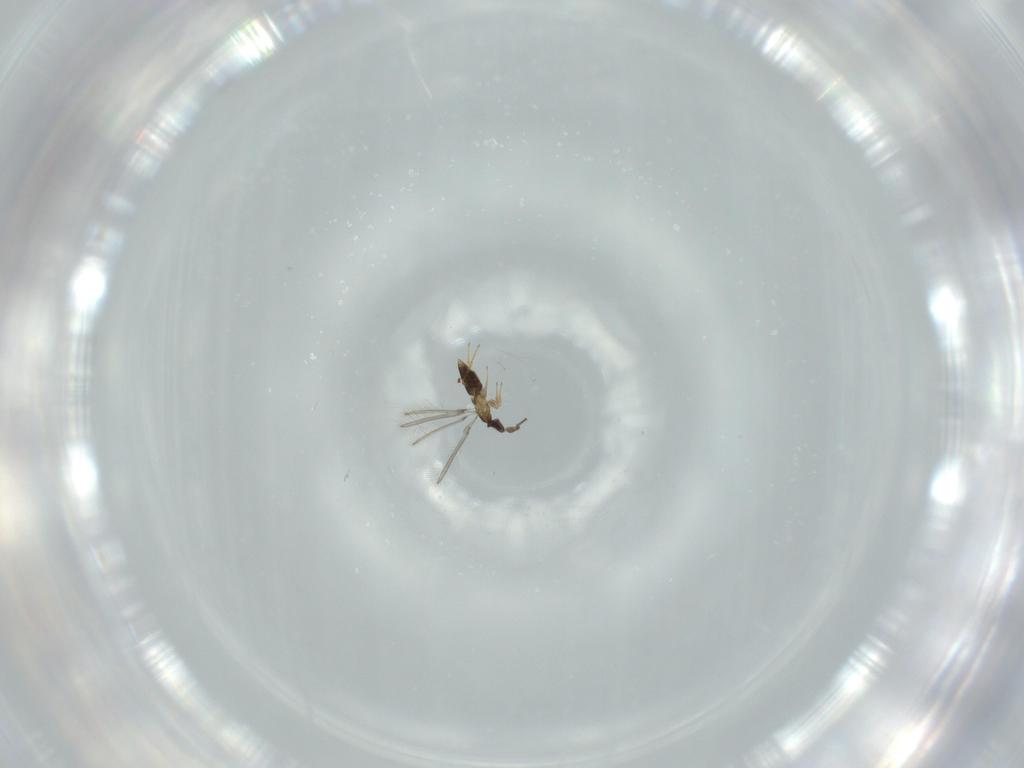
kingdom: Animalia
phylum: Arthropoda
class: Insecta
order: Hymenoptera
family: Mymaridae
